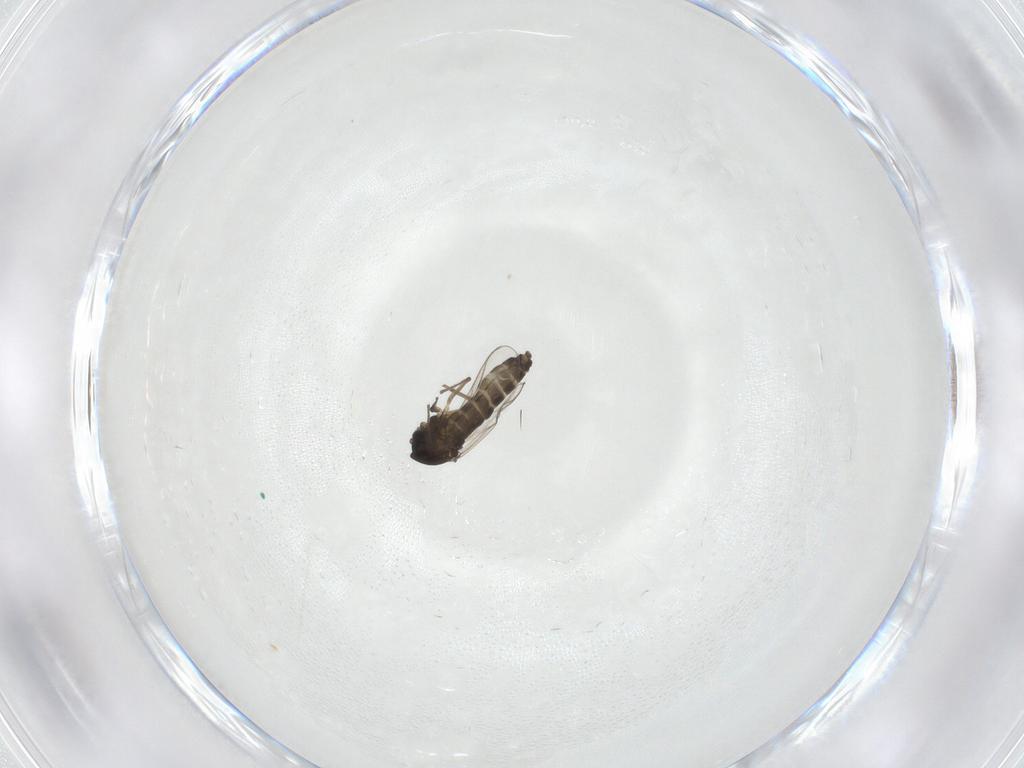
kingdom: Animalia
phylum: Arthropoda
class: Insecta
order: Diptera
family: Chironomidae
